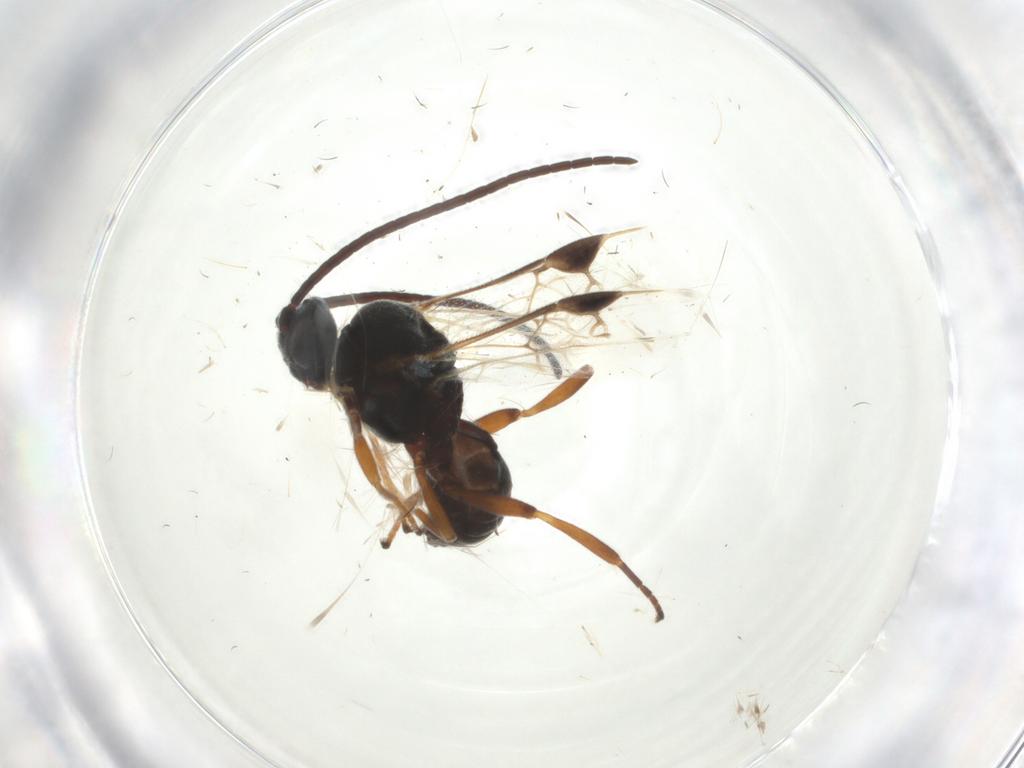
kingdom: Animalia
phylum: Arthropoda
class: Insecta
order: Hymenoptera
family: Braconidae
